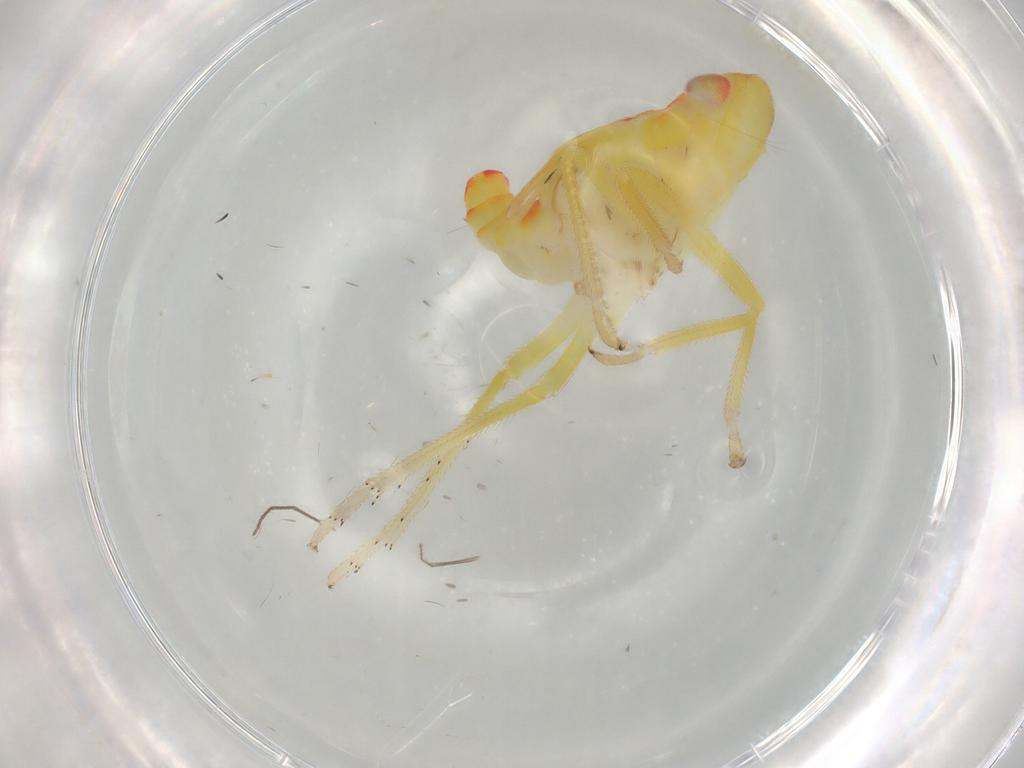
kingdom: Animalia
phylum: Arthropoda
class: Insecta
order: Hemiptera
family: Tropiduchidae
